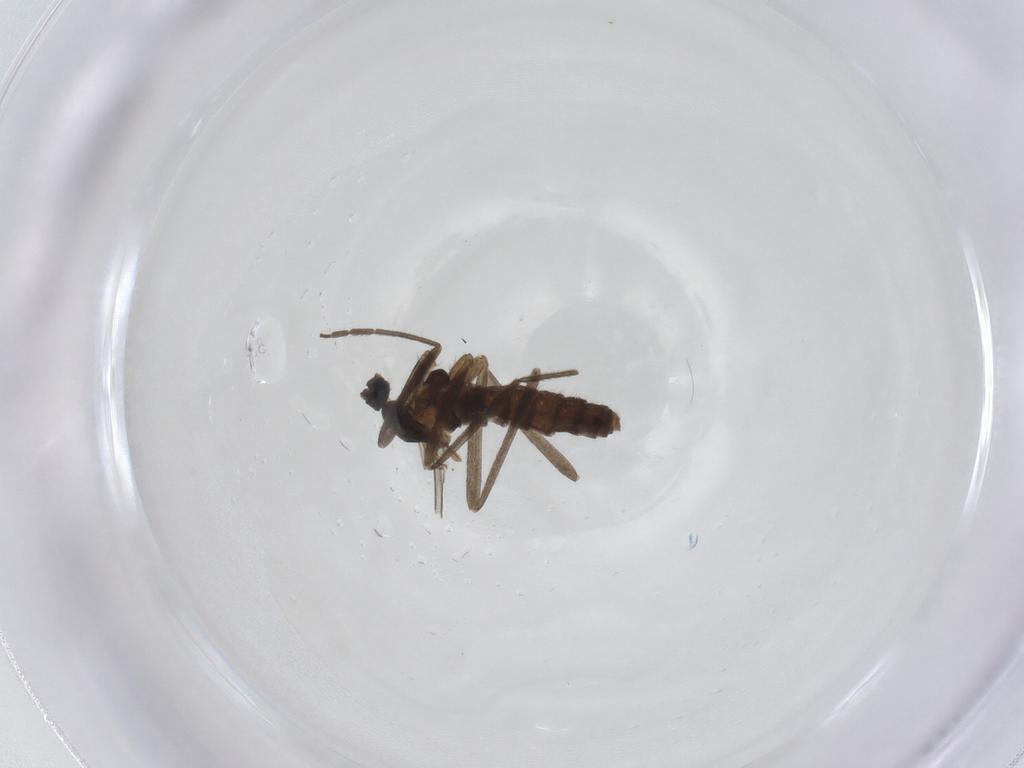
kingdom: Animalia
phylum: Arthropoda
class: Insecta
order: Diptera
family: Cecidomyiidae
